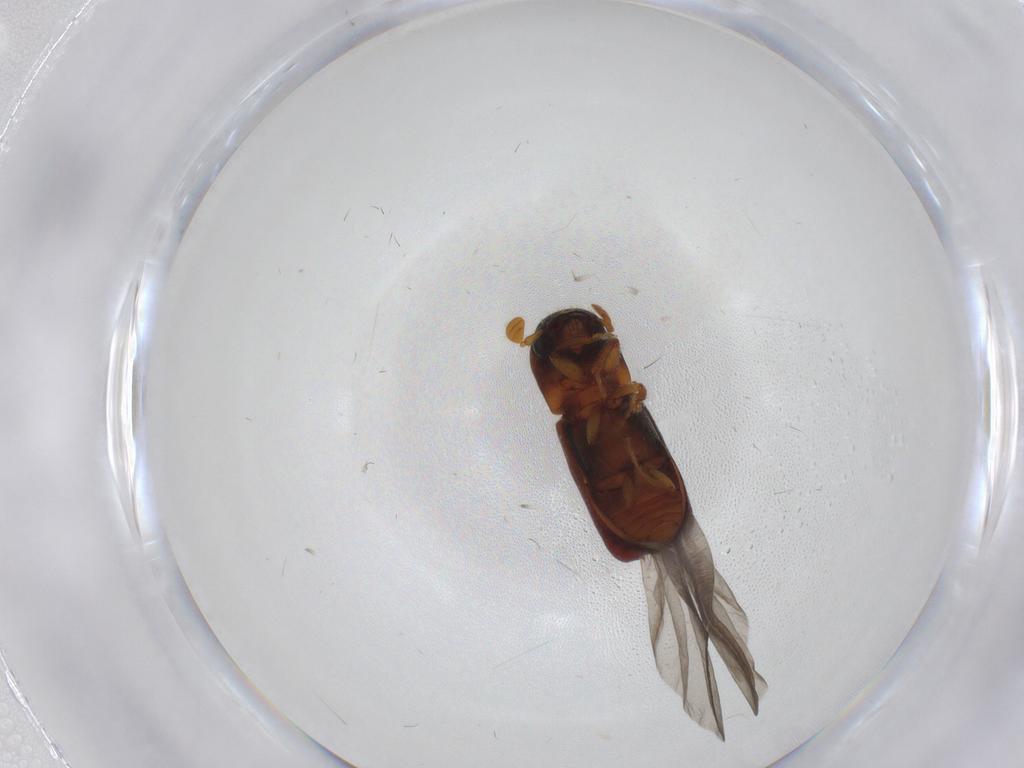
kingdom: Animalia
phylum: Arthropoda
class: Insecta
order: Coleoptera
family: Curculionidae
